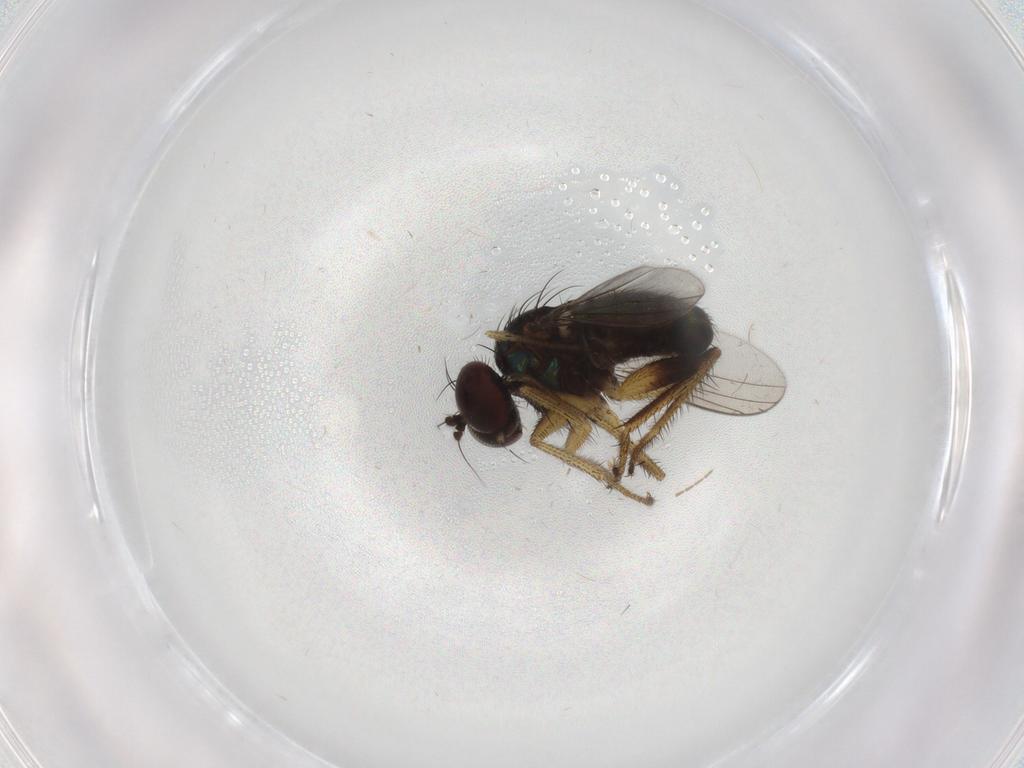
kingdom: Animalia
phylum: Arthropoda
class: Insecta
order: Diptera
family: Dolichopodidae
